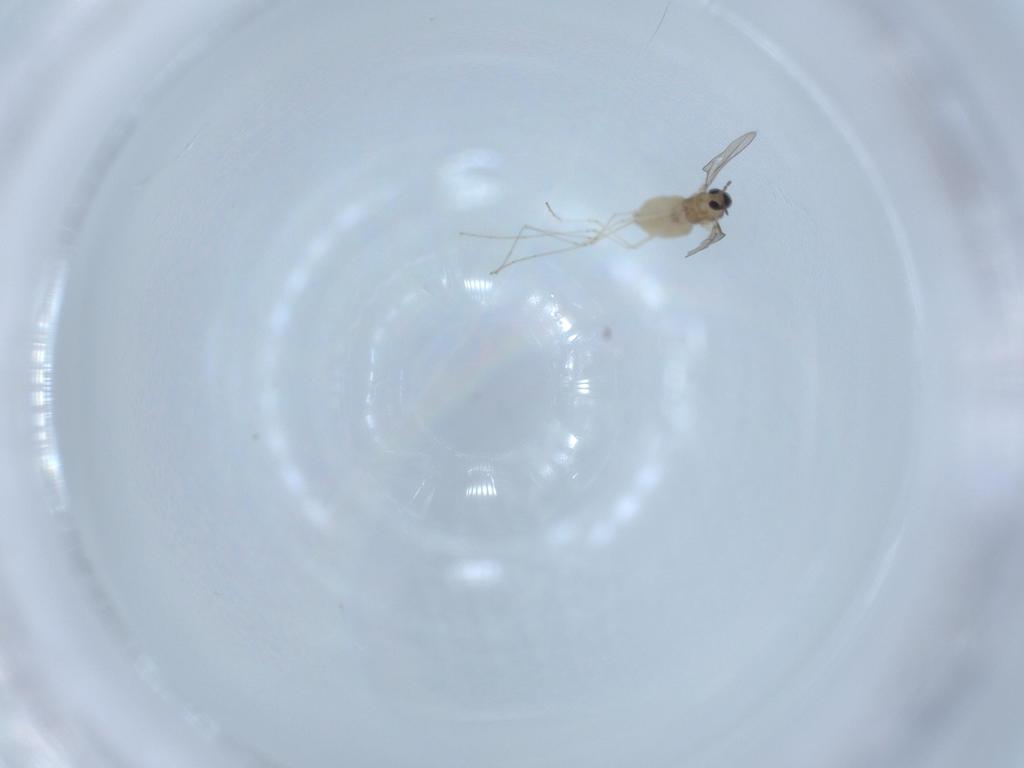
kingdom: Animalia
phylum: Arthropoda
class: Insecta
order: Diptera
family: Cecidomyiidae
